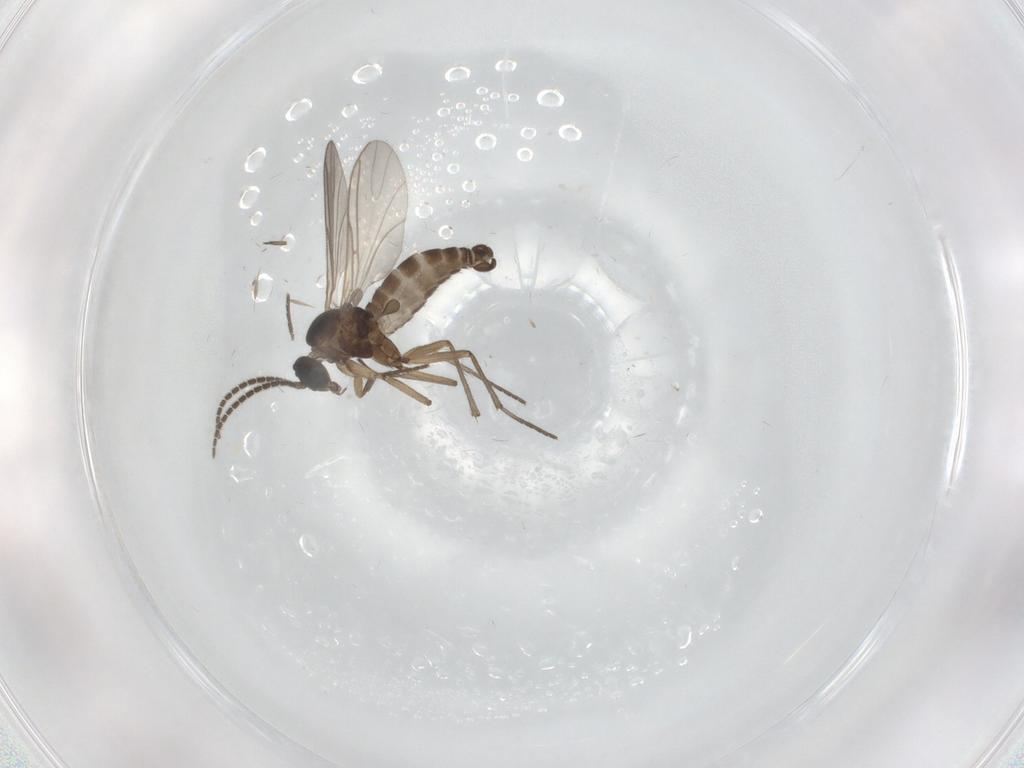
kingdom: Animalia
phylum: Arthropoda
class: Insecta
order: Diptera
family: Sciaridae
